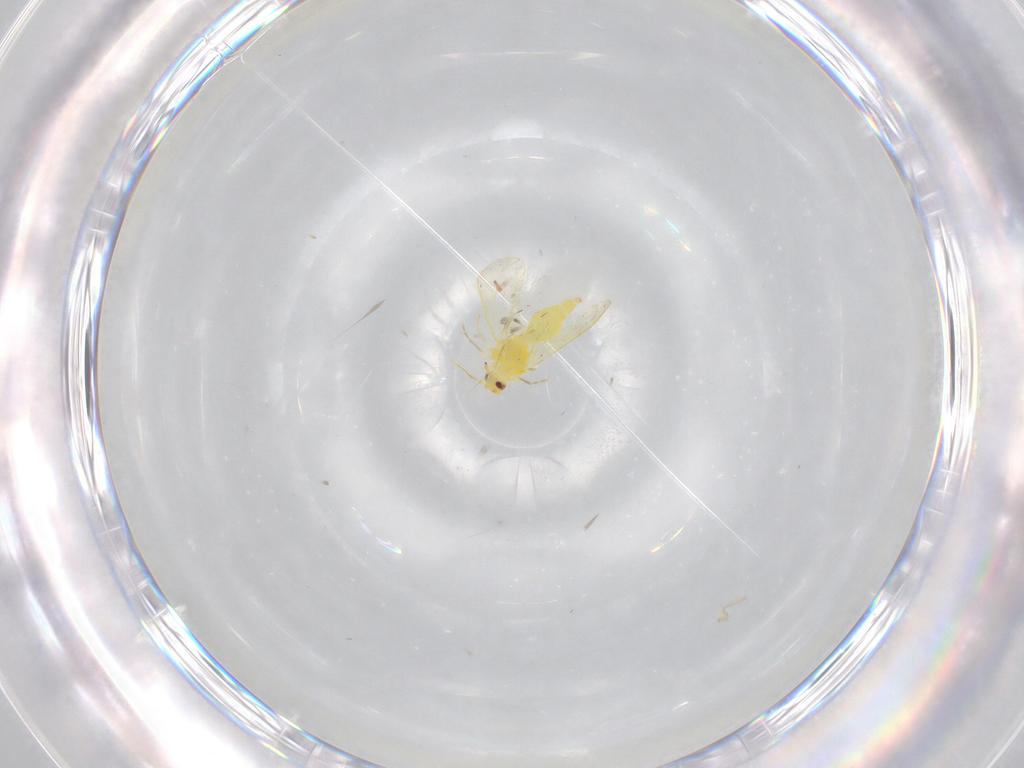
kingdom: Animalia
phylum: Arthropoda
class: Insecta
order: Hemiptera
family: Aleyrodidae
